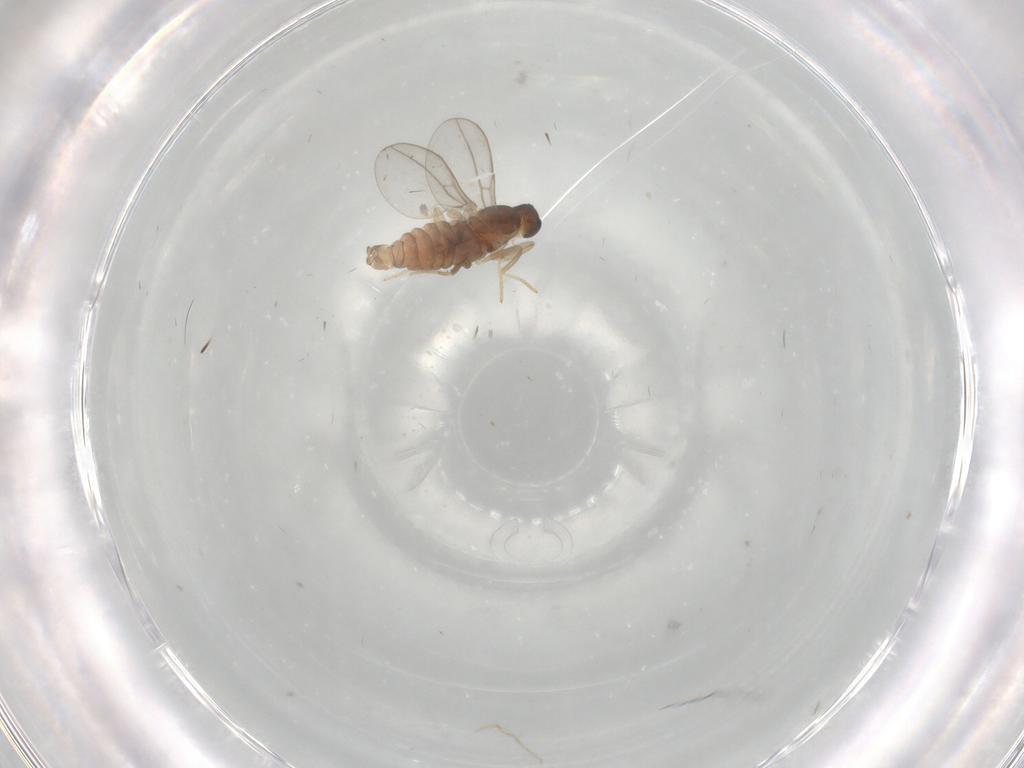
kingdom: Animalia
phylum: Arthropoda
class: Insecta
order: Diptera
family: Cecidomyiidae
